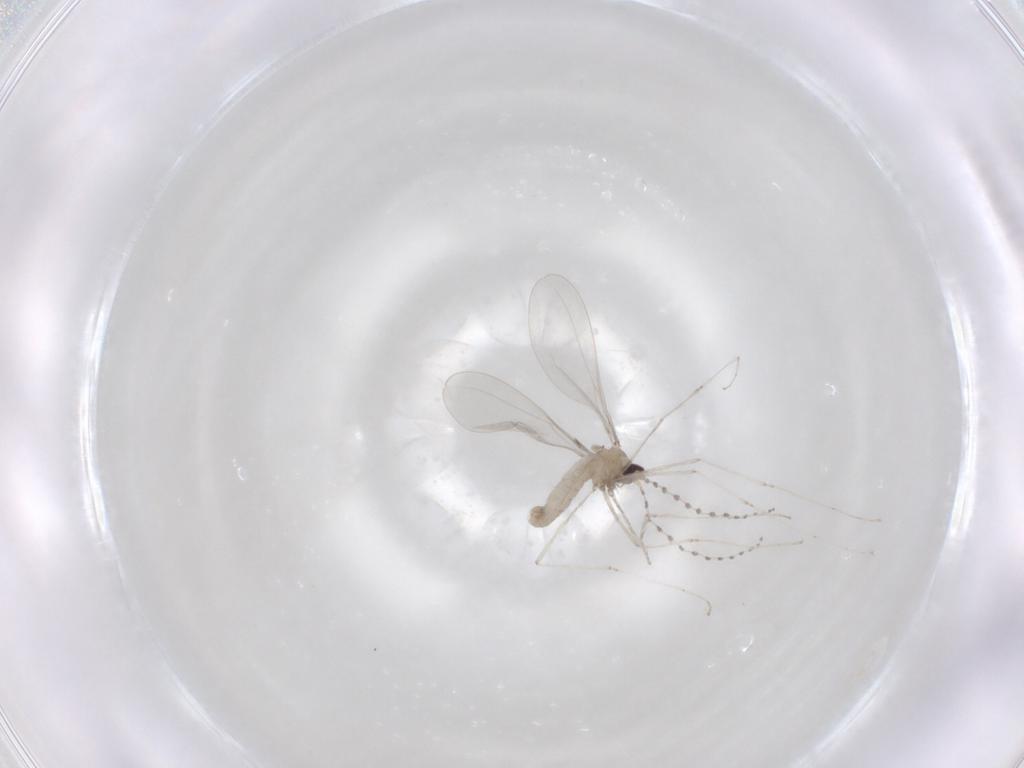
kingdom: Animalia
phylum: Arthropoda
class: Insecta
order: Diptera
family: Cecidomyiidae
